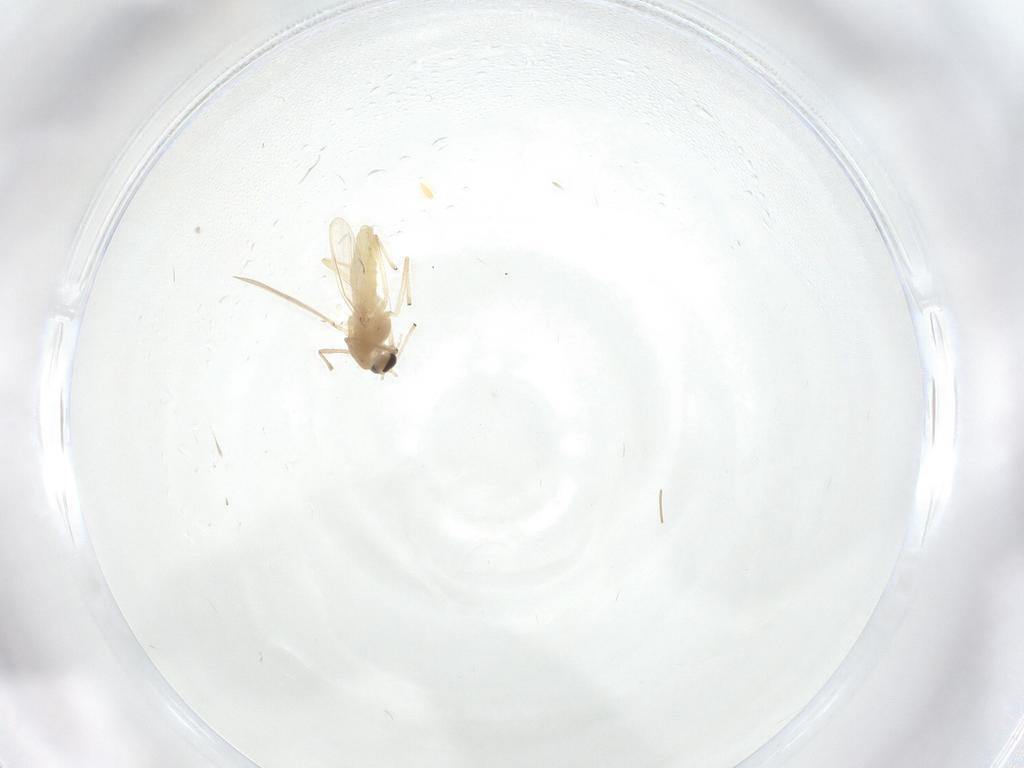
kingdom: Animalia
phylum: Arthropoda
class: Insecta
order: Diptera
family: Chironomidae
